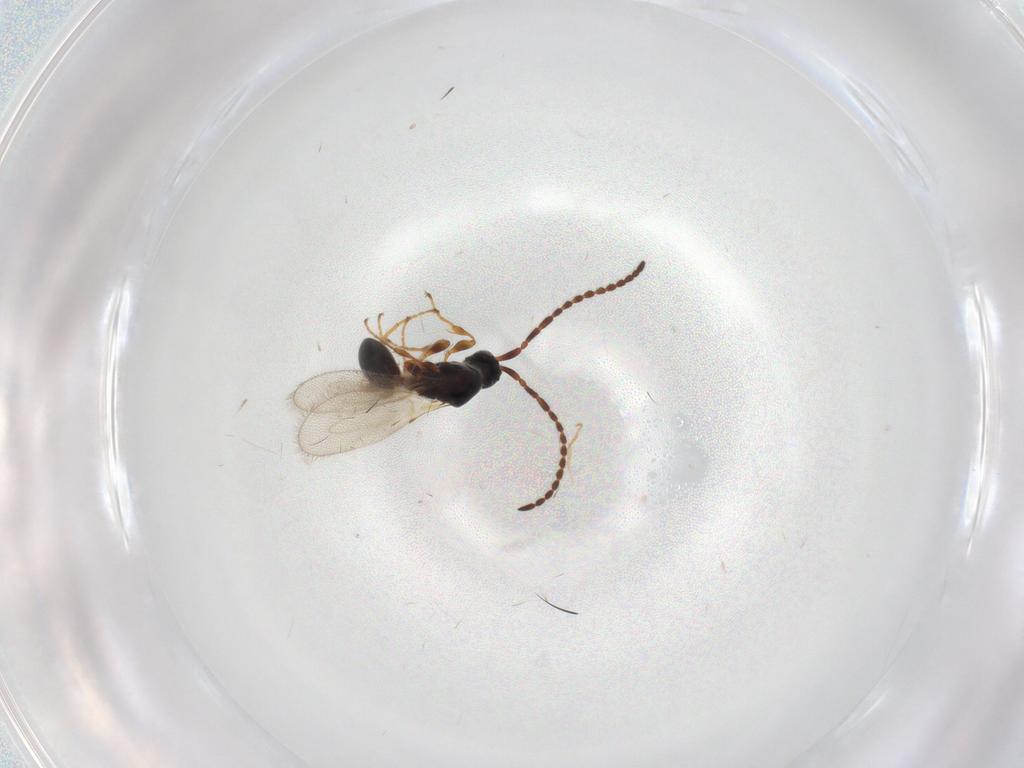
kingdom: Animalia
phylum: Arthropoda
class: Insecta
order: Hymenoptera
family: Diapriidae
